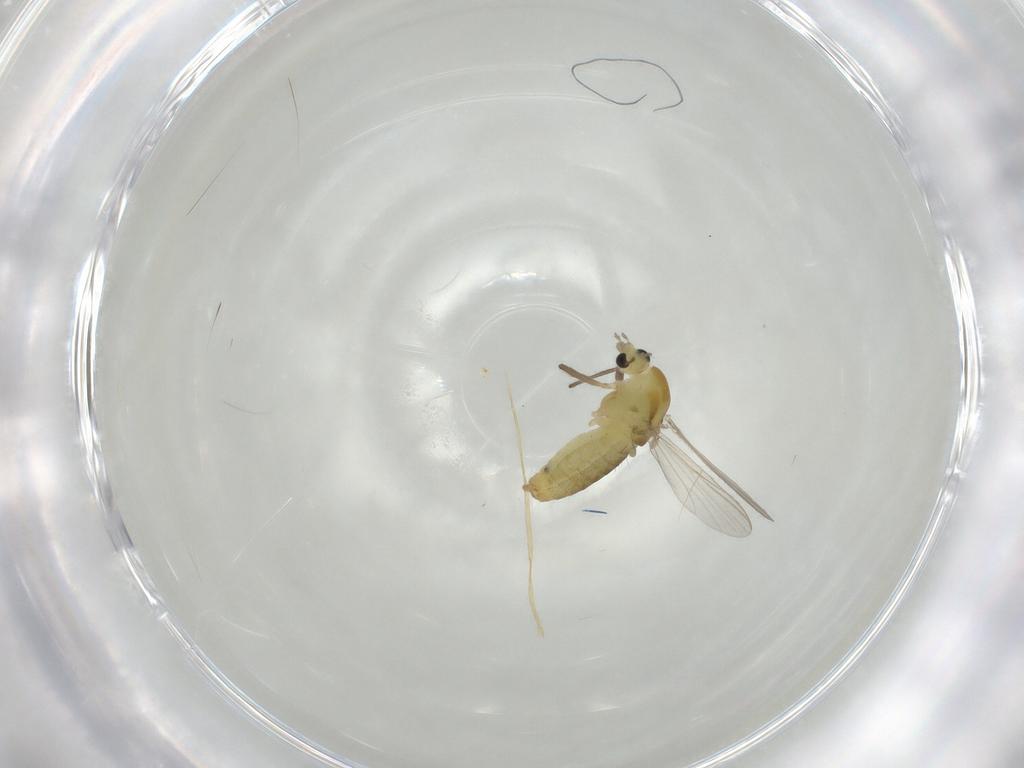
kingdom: Animalia
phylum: Arthropoda
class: Insecta
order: Diptera
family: Chironomidae
